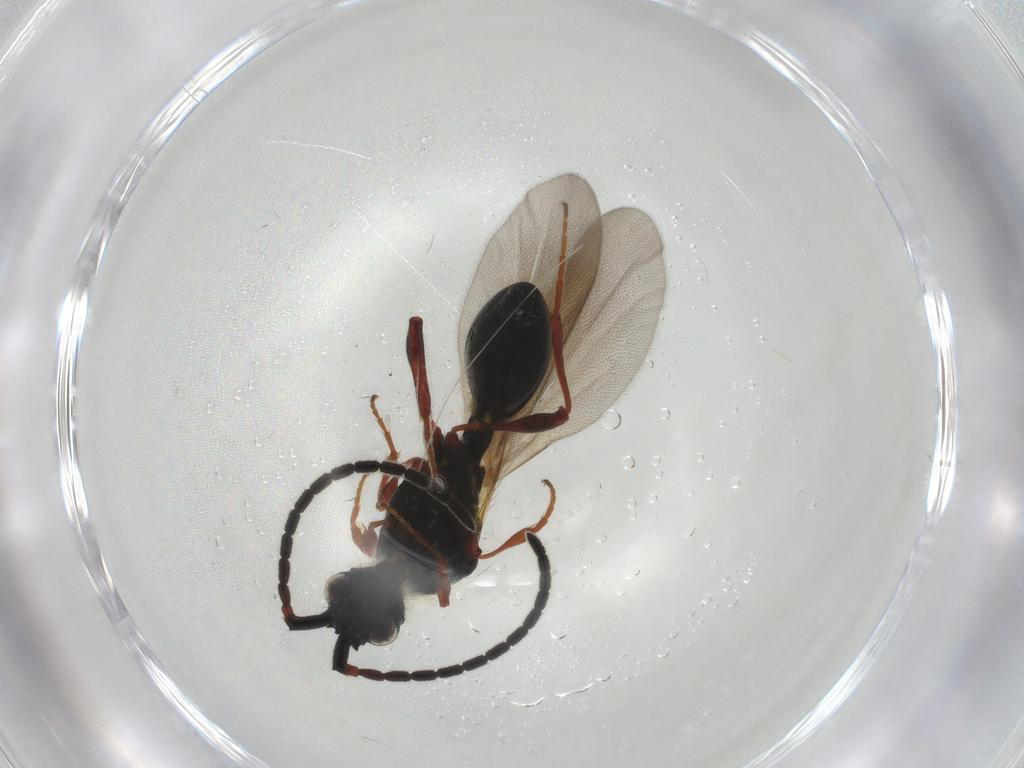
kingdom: Animalia
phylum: Arthropoda
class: Insecta
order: Hymenoptera
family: Diapriidae
